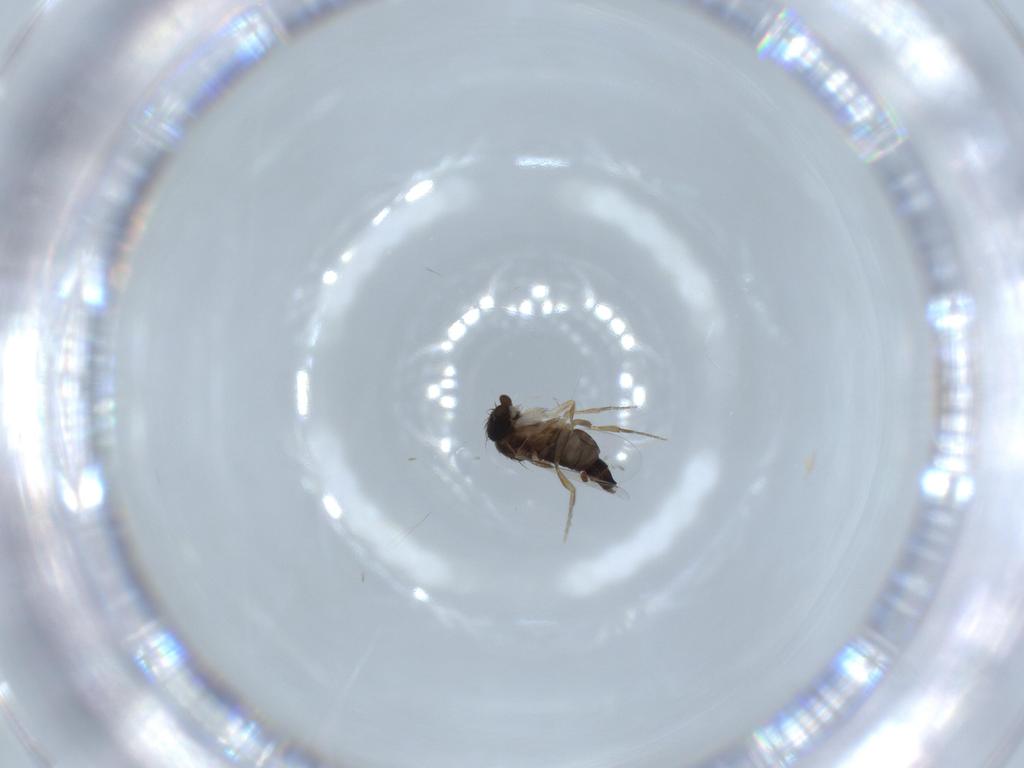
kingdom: Animalia
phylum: Arthropoda
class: Insecta
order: Diptera
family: Phoridae
